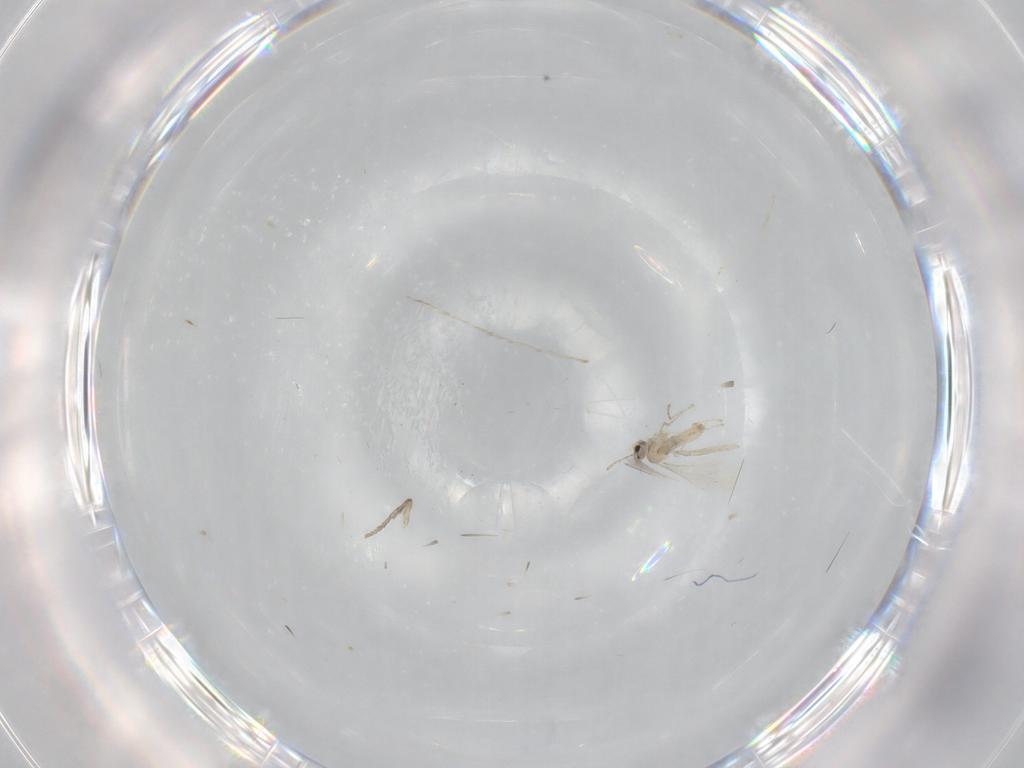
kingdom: Animalia
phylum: Arthropoda
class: Insecta
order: Diptera
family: Cecidomyiidae
